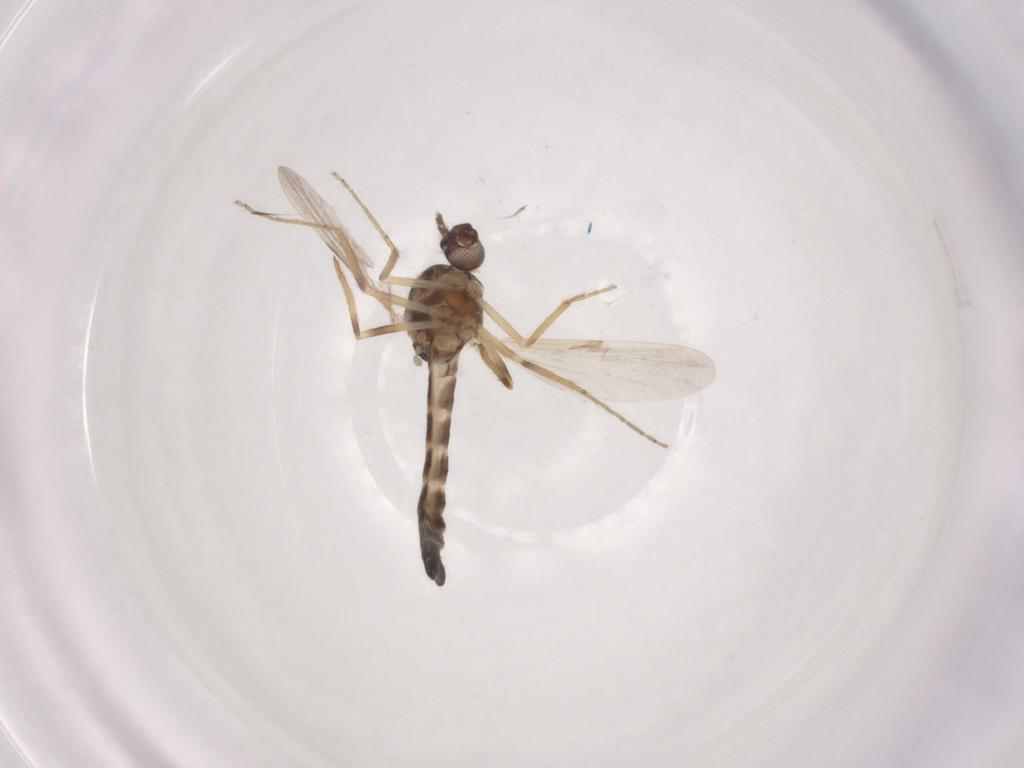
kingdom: Animalia
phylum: Arthropoda
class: Insecta
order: Diptera
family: Ceratopogonidae
